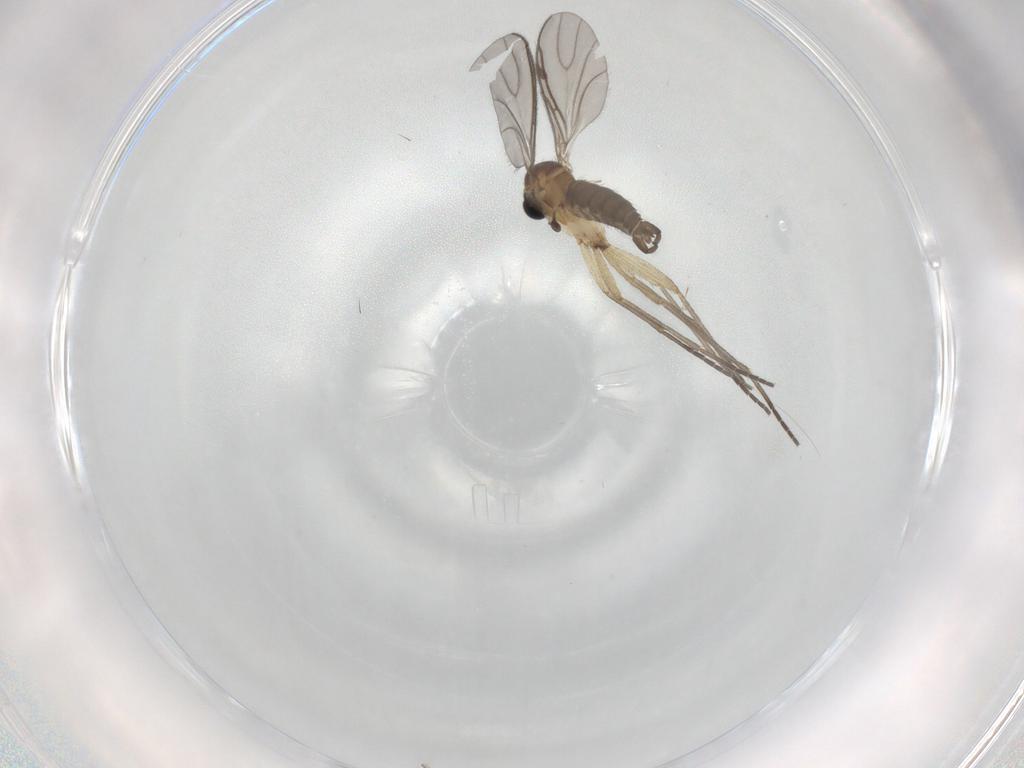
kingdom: Animalia
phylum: Arthropoda
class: Insecta
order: Diptera
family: Sciaridae
